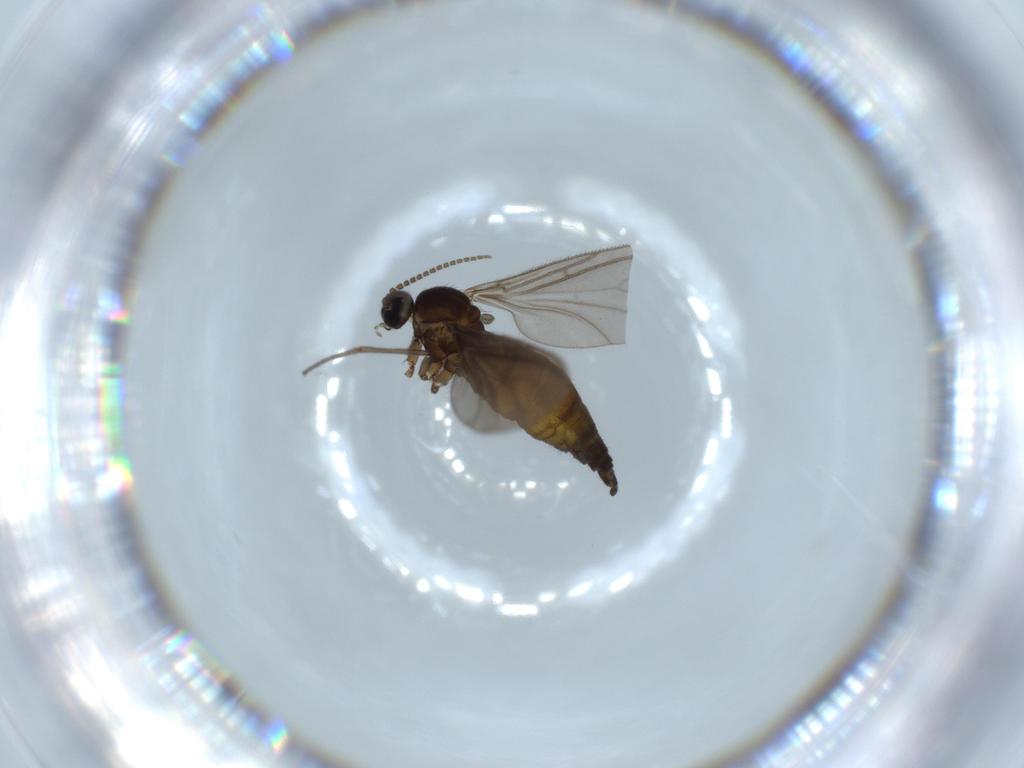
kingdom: Animalia
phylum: Arthropoda
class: Insecta
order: Diptera
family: Sciaridae
